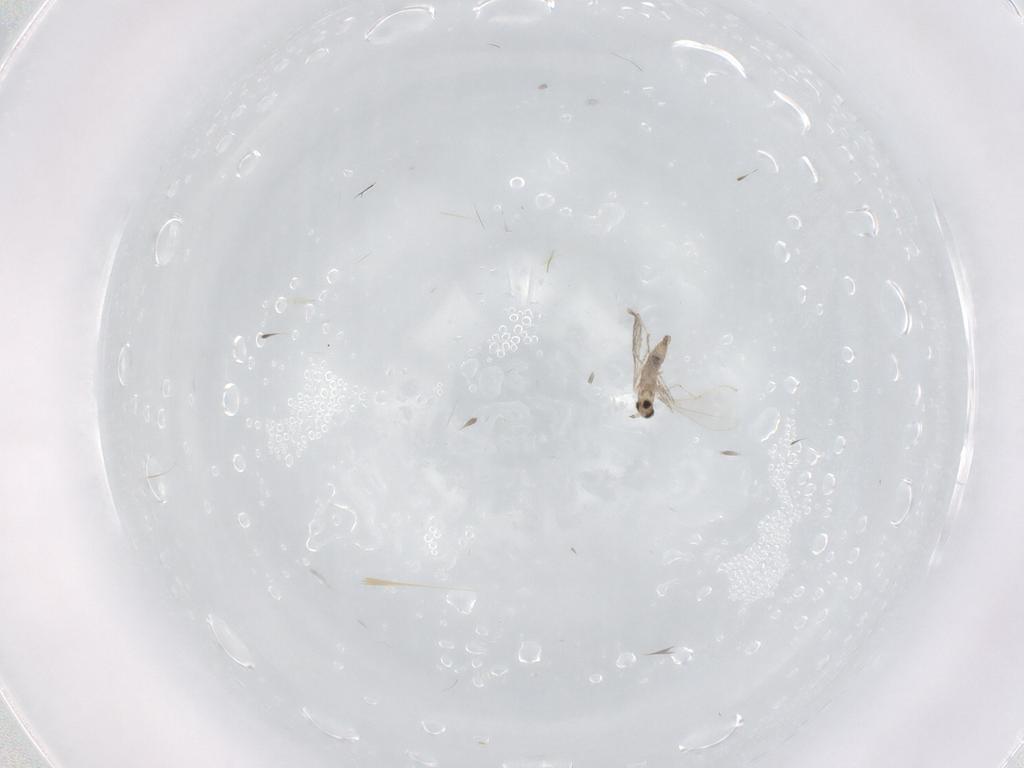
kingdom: Animalia
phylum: Arthropoda
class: Insecta
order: Diptera
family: Cecidomyiidae
